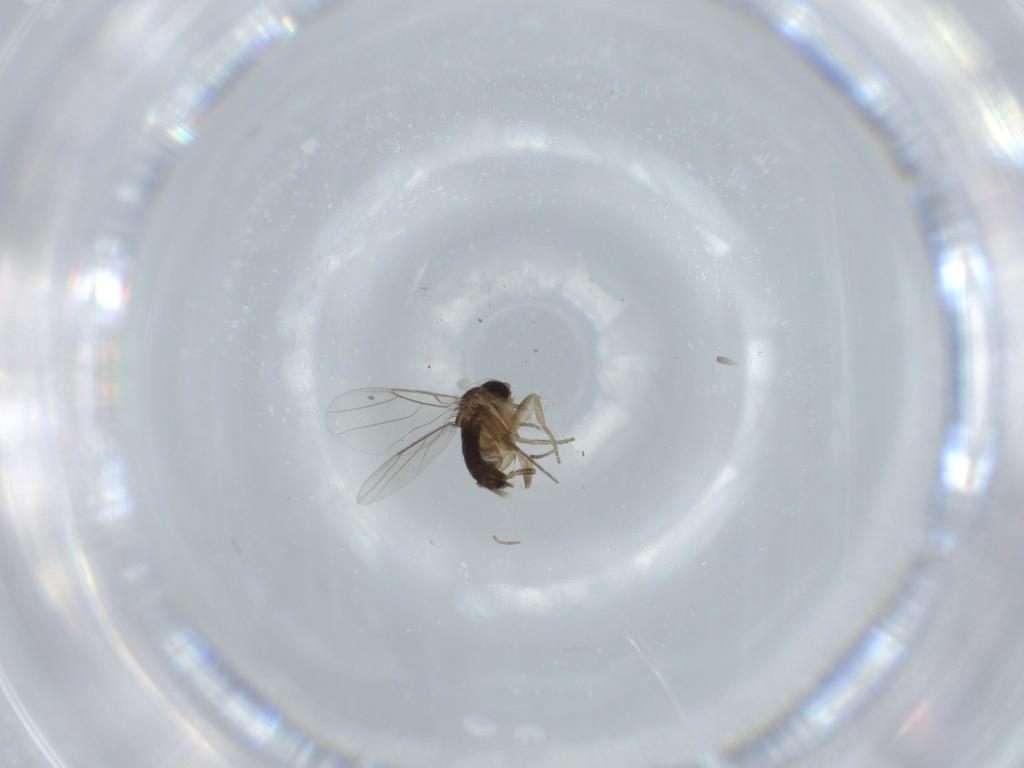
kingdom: Animalia
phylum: Arthropoda
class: Insecta
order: Diptera
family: Phoridae
